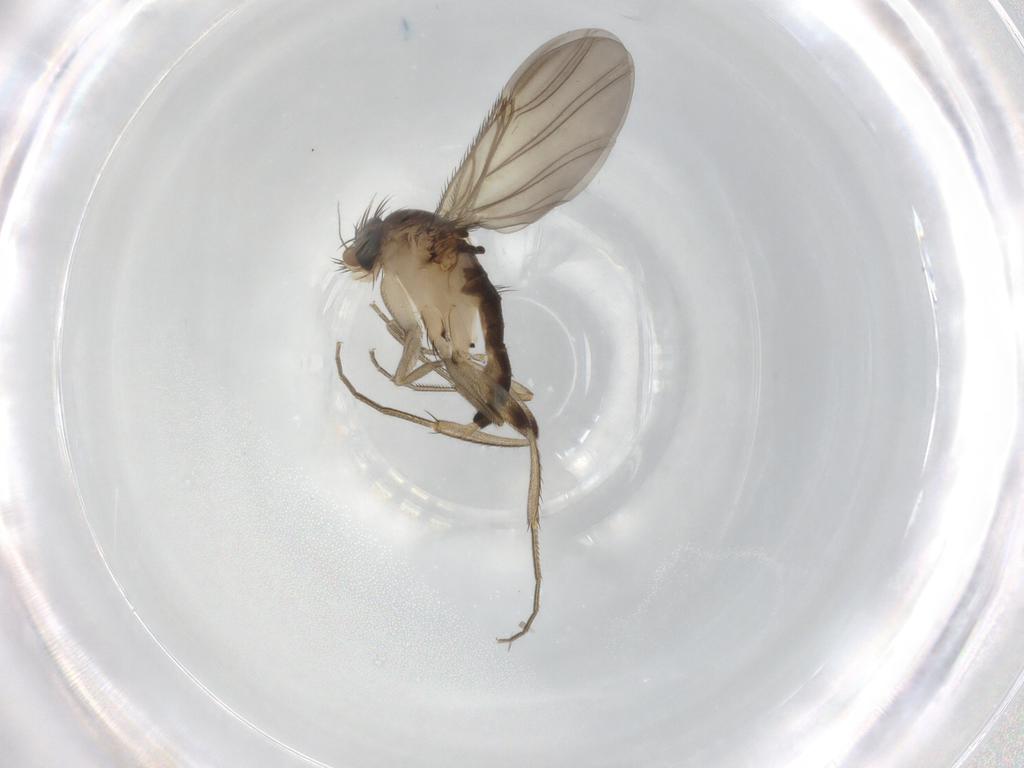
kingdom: Animalia
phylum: Arthropoda
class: Insecta
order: Diptera
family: Phoridae
